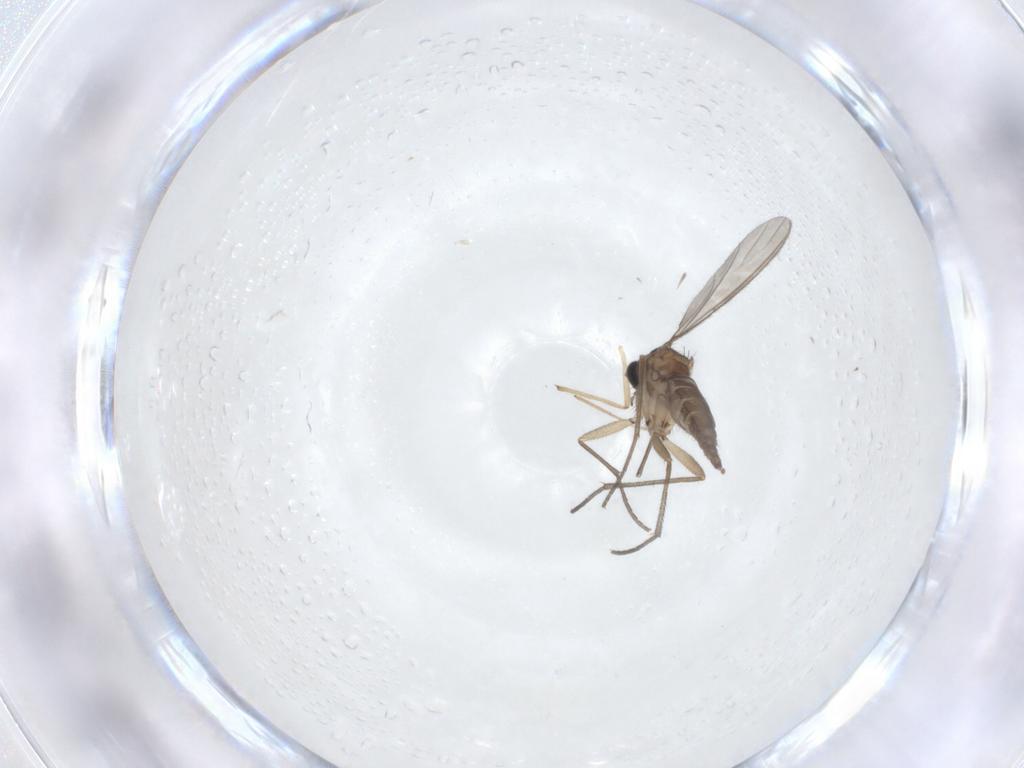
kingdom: Animalia
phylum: Arthropoda
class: Insecta
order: Diptera
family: Chironomidae
